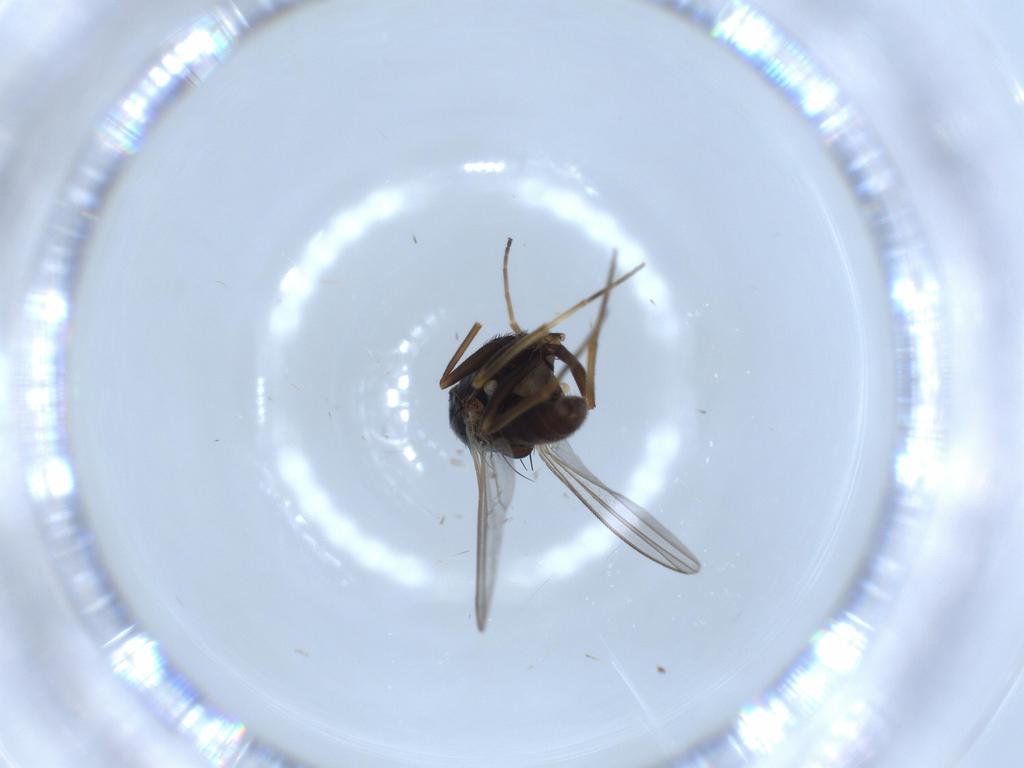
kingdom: Animalia
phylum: Arthropoda
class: Insecta
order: Diptera
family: Dolichopodidae
